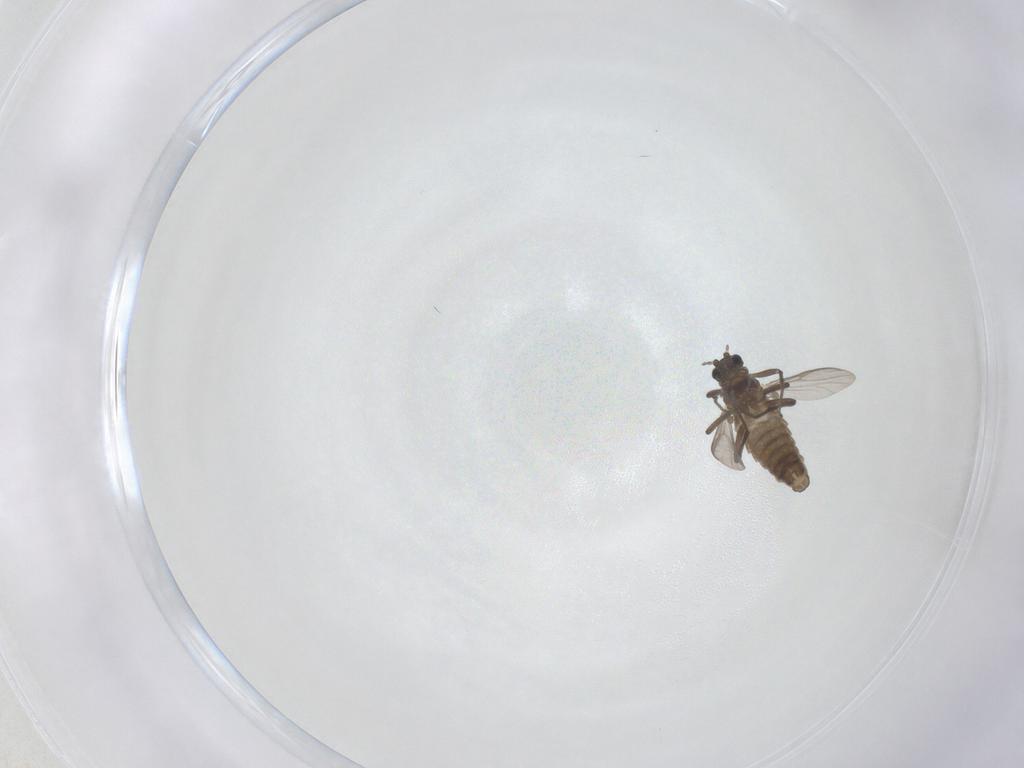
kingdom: Animalia
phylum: Arthropoda
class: Insecta
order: Diptera
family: Chironomidae
